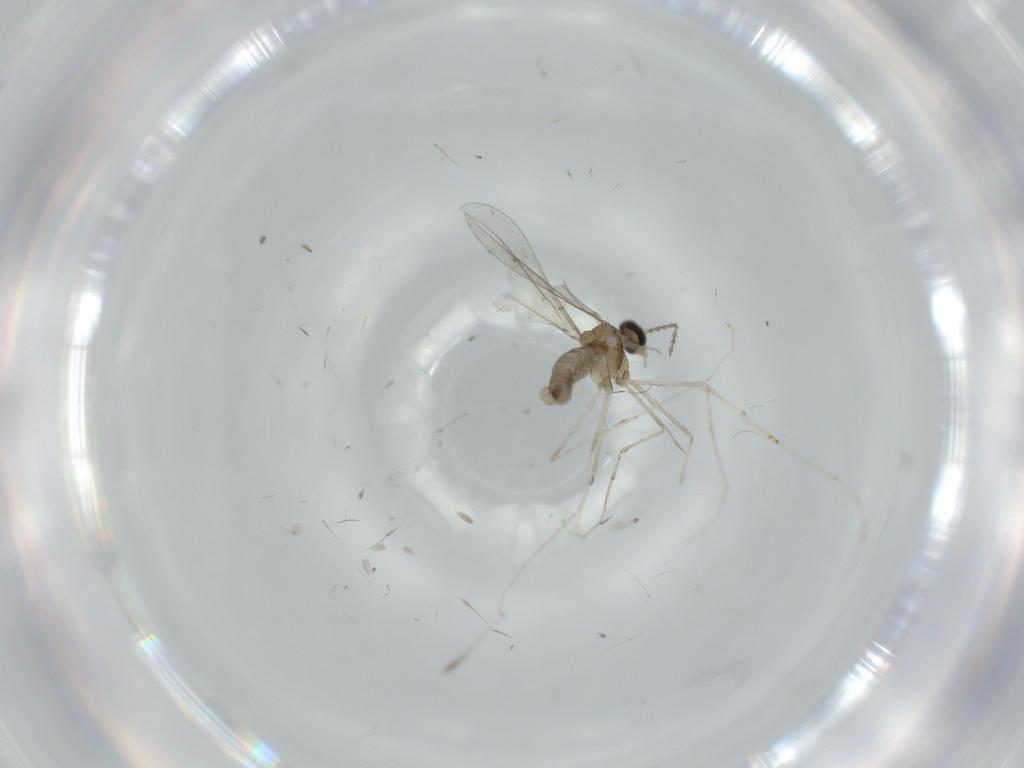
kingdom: Animalia
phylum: Arthropoda
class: Insecta
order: Diptera
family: Cecidomyiidae
